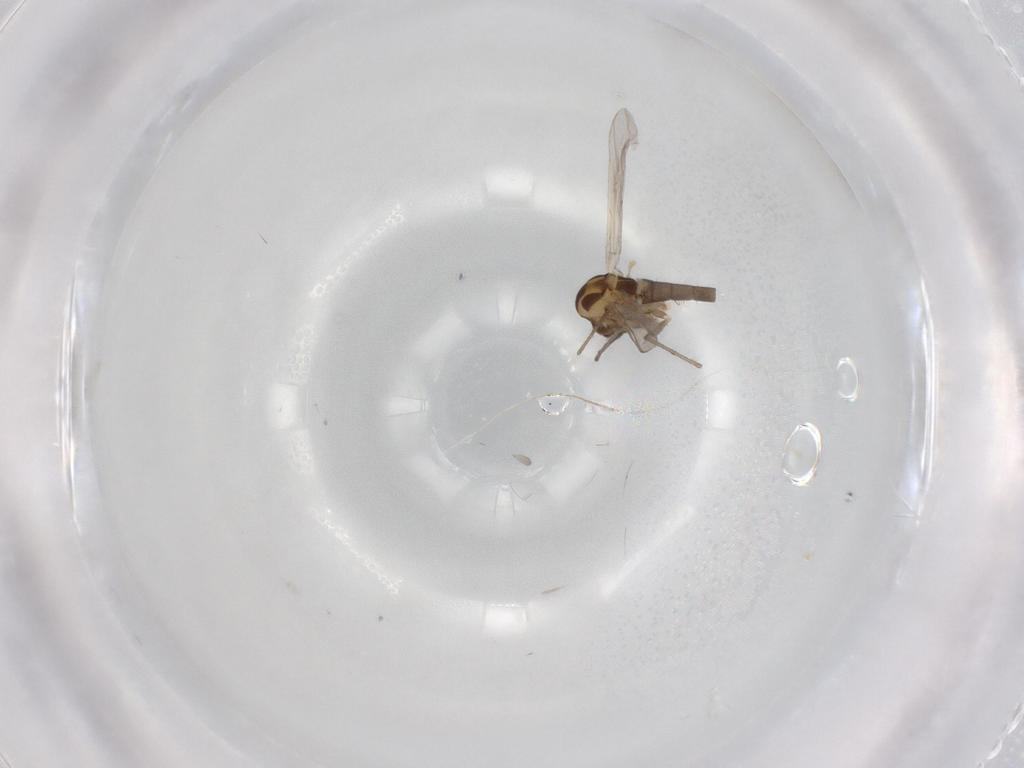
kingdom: Animalia
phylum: Arthropoda
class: Insecta
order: Diptera
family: Chironomidae
